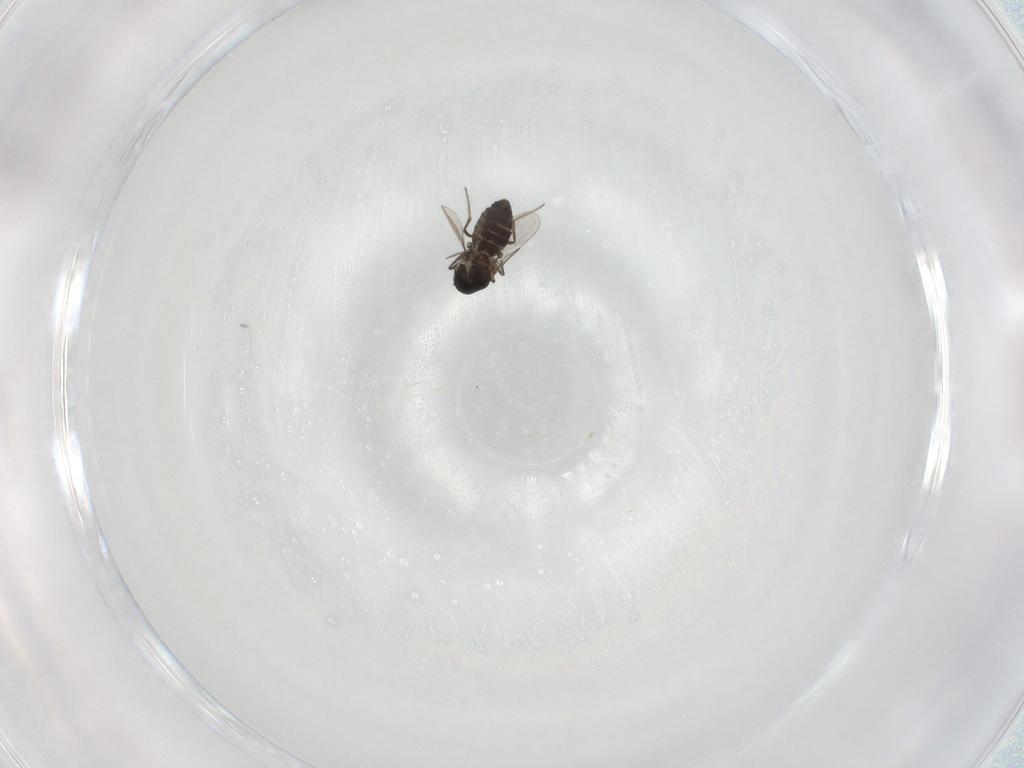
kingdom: Animalia
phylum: Arthropoda
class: Insecta
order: Diptera
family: Ceratopogonidae
